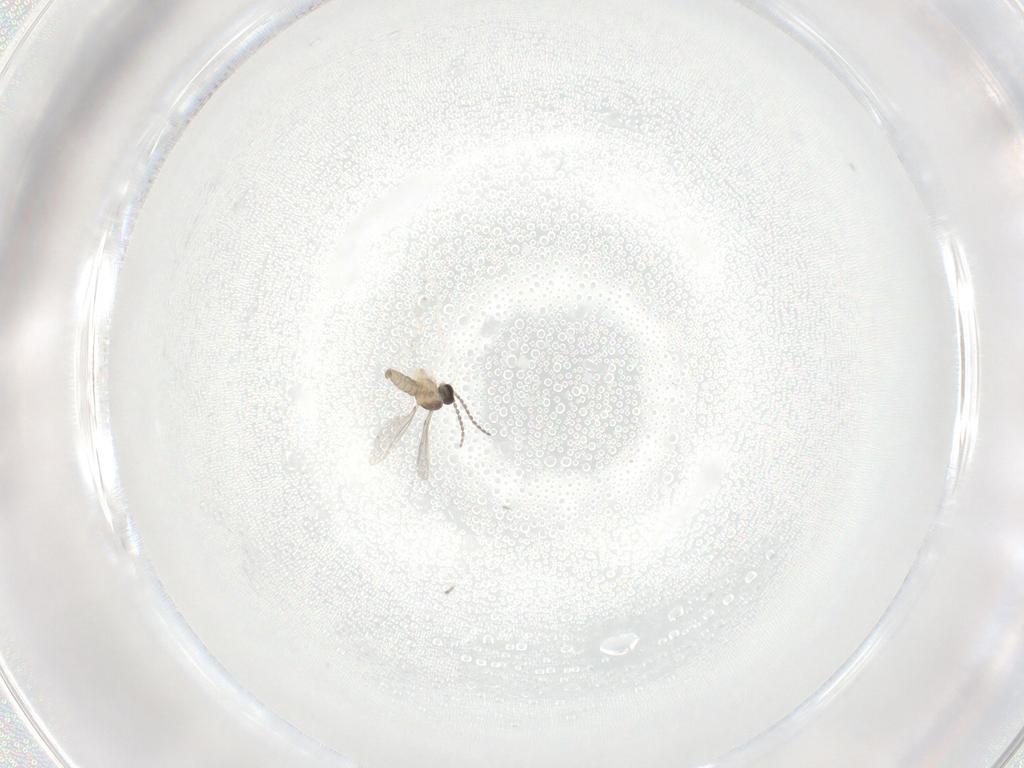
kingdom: Animalia
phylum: Arthropoda
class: Insecta
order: Diptera
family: Cecidomyiidae
